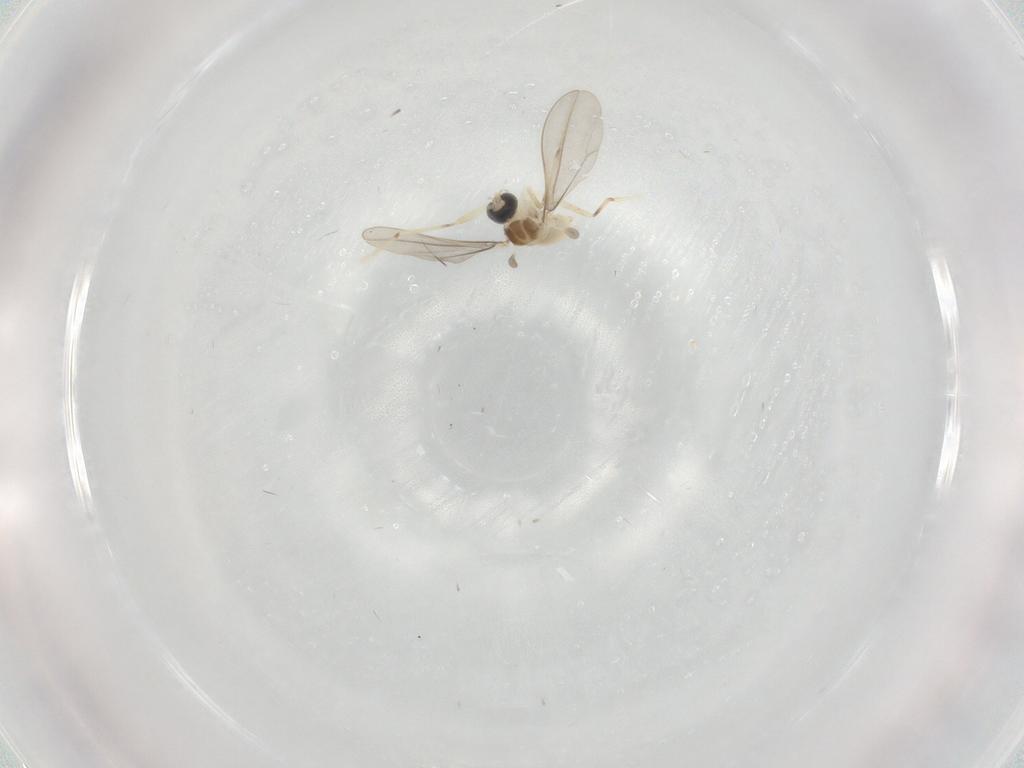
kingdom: Animalia
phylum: Arthropoda
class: Insecta
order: Diptera
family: Cecidomyiidae
